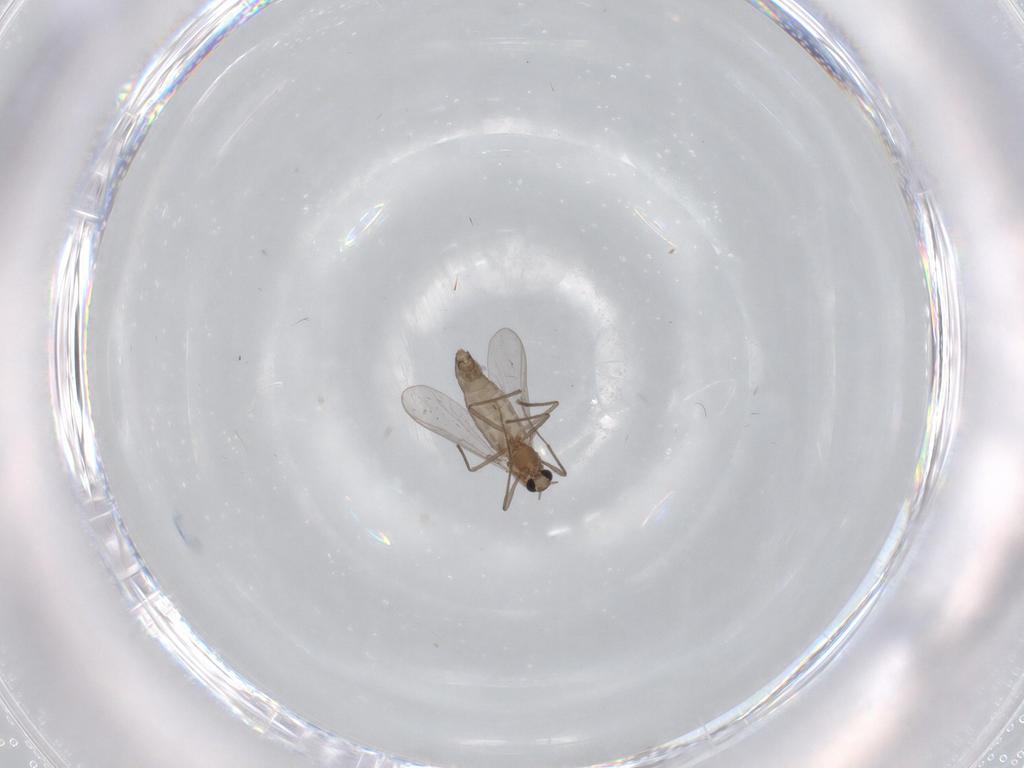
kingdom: Animalia
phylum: Arthropoda
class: Insecta
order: Diptera
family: Chironomidae
